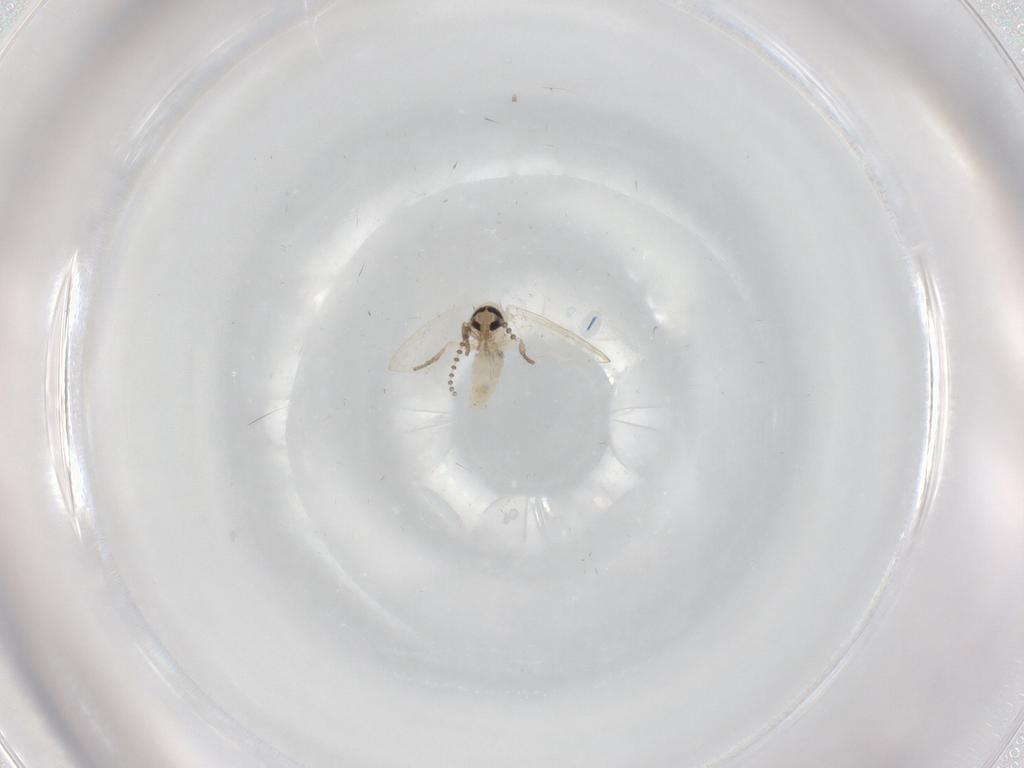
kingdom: Animalia
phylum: Arthropoda
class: Insecta
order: Diptera
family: Psychodidae
